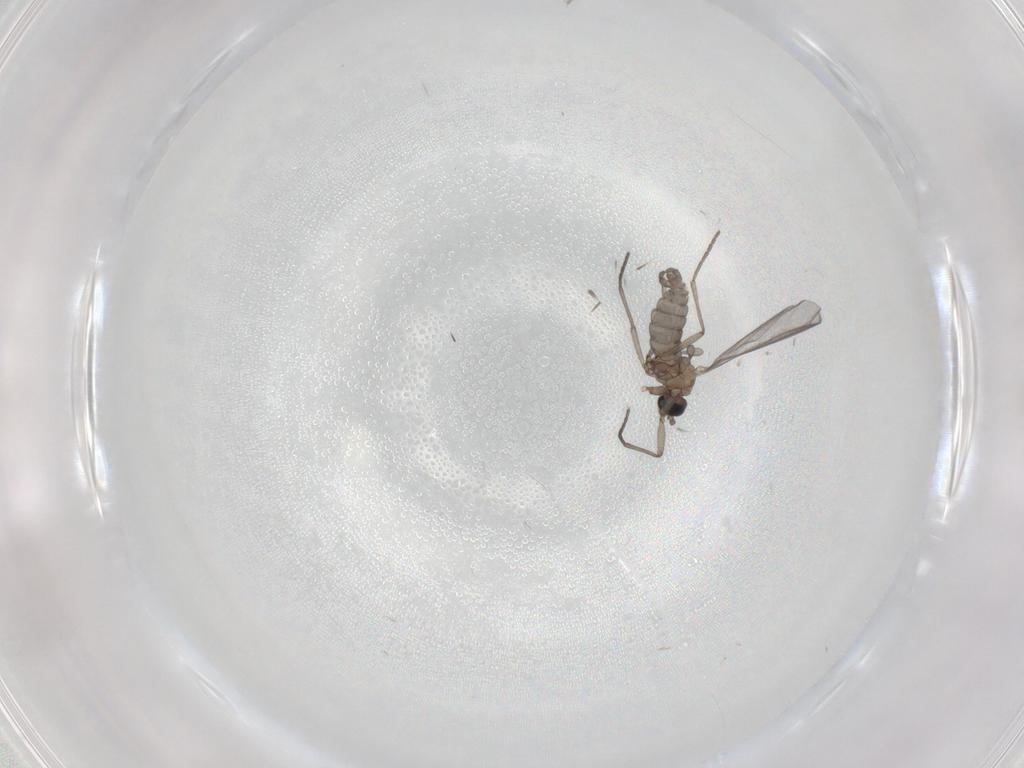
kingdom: Animalia
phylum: Arthropoda
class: Insecta
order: Diptera
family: Sciaridae
